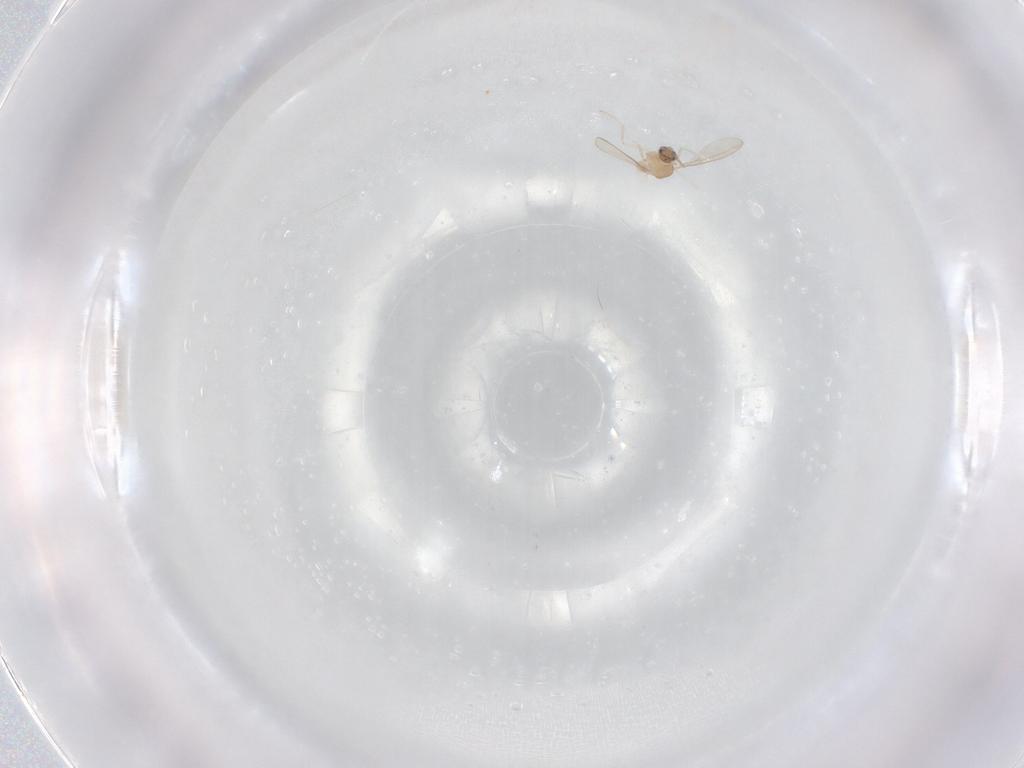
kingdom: Animalia
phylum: Arthropoda
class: Insecta
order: Diptera
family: Cecidomyiidae
